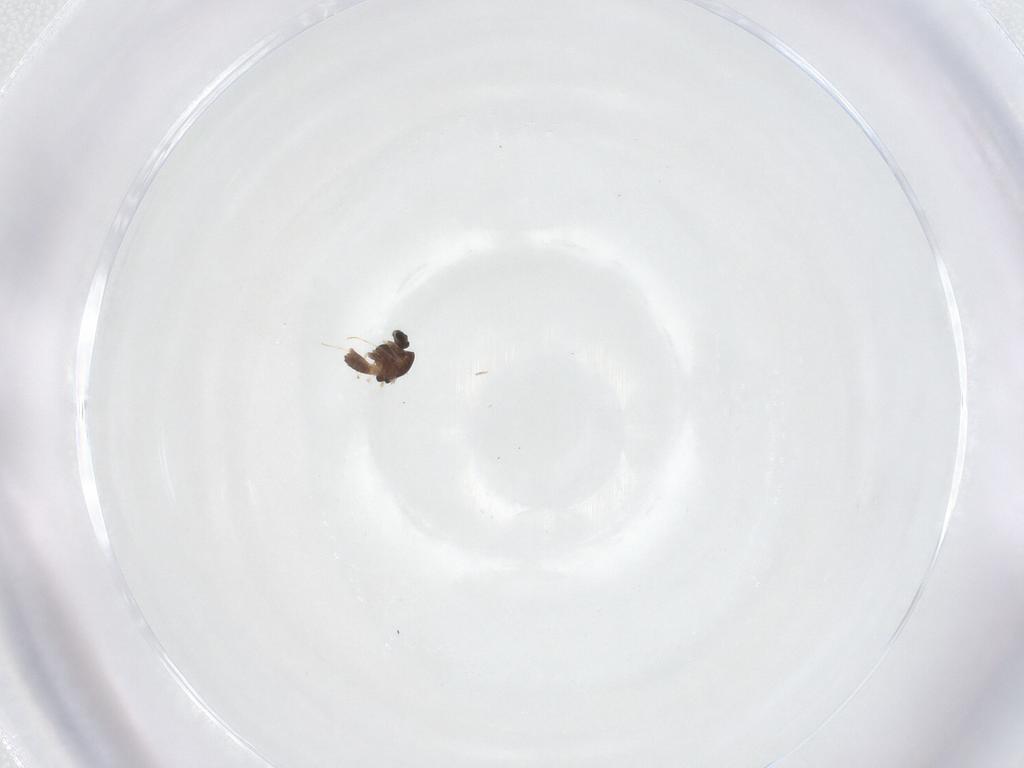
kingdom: Animalia
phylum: Arthropoda
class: Insecta
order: Diptera
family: Chironomidae
